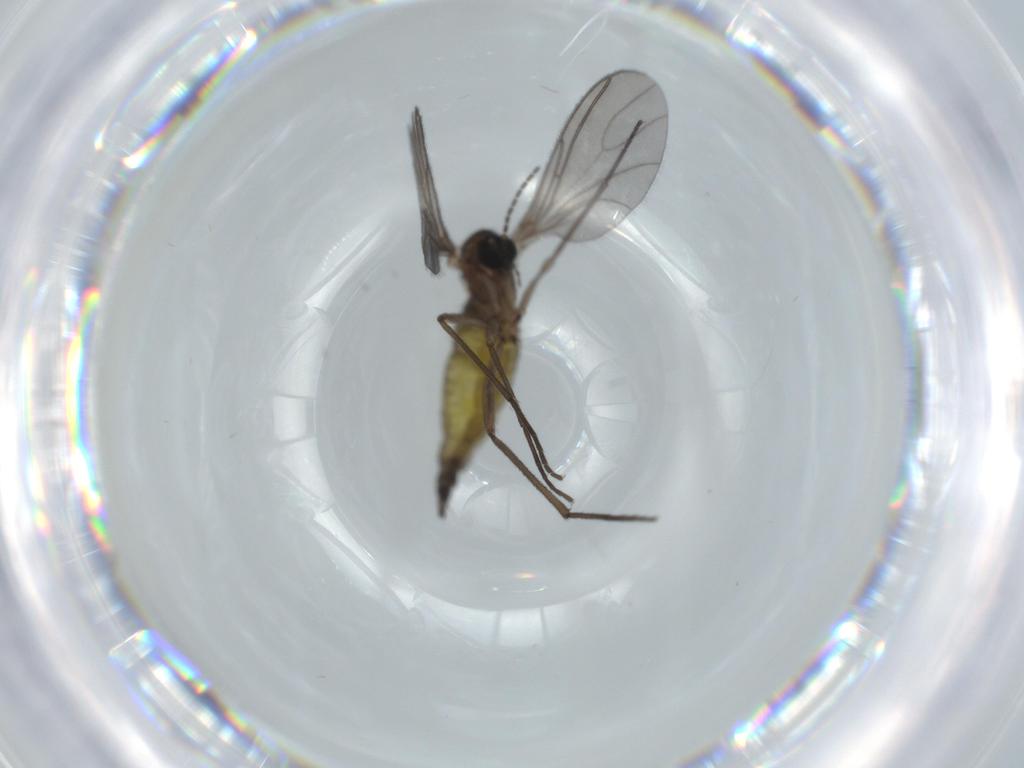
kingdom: Animalia
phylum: Arthropoda
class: Insecta
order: Diptera
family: Sciaridae
